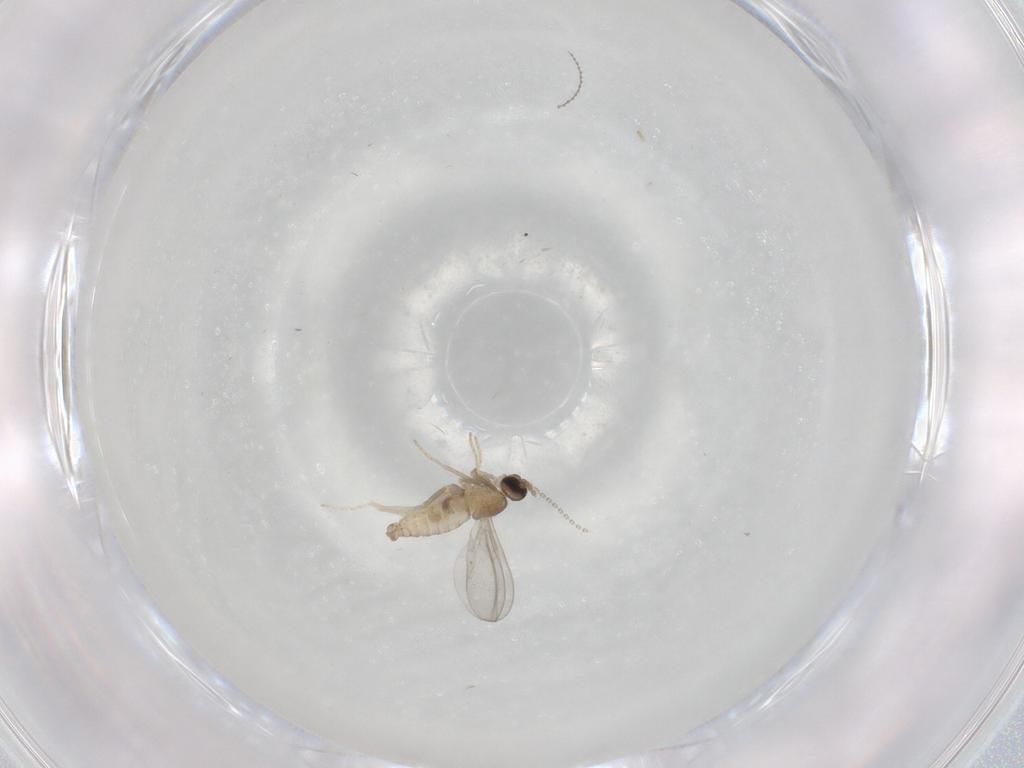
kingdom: Animalia
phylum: Arthropoda
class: Insecta
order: Diptera
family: Cecidomyiidae
